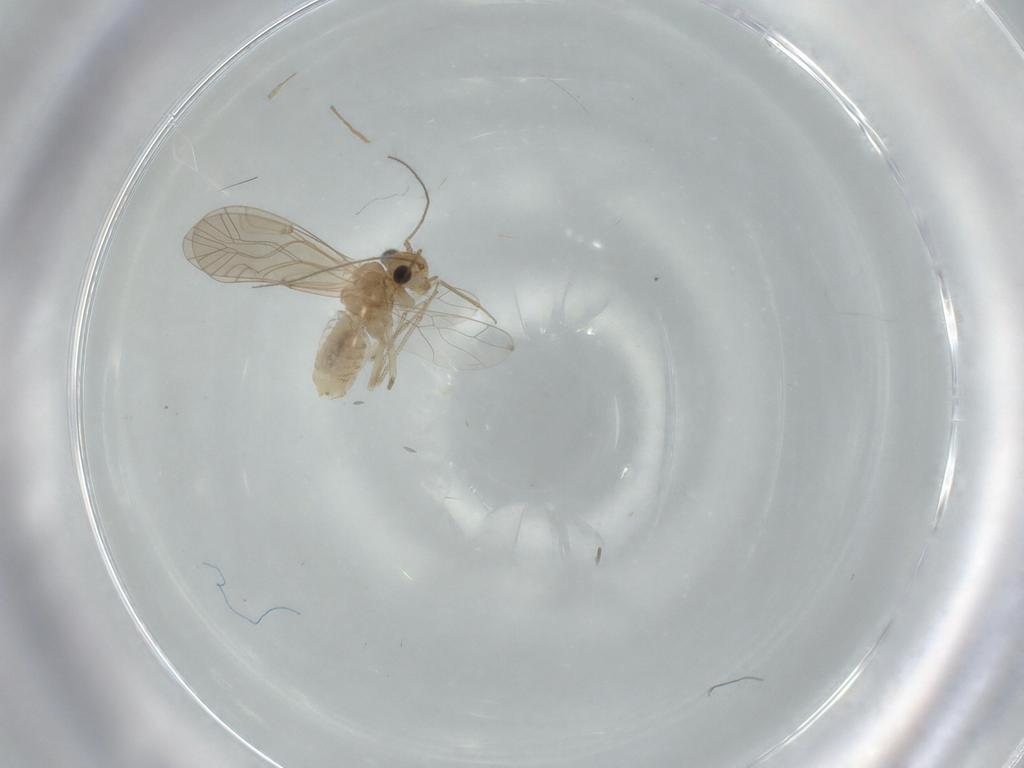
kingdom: Animalia
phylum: Arthropoda
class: Insecta
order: Psocodea
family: Lachesillidae
